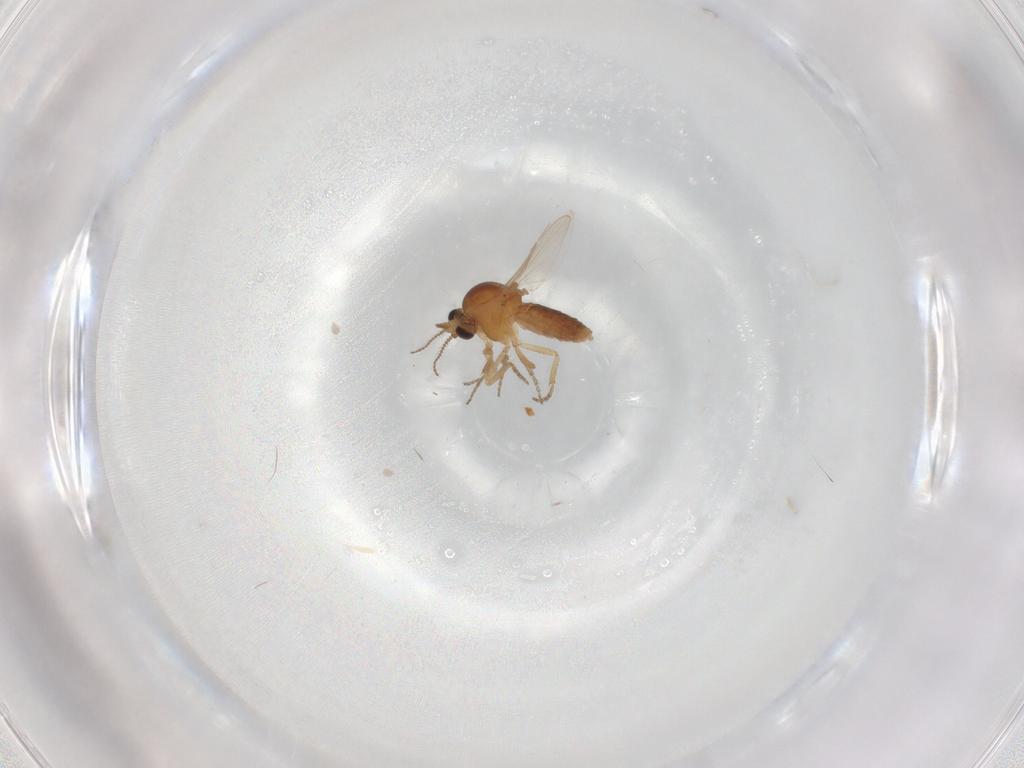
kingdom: Animalia
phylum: Arthropoda
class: Insecta
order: Diptera
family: Ceratopogonidae
